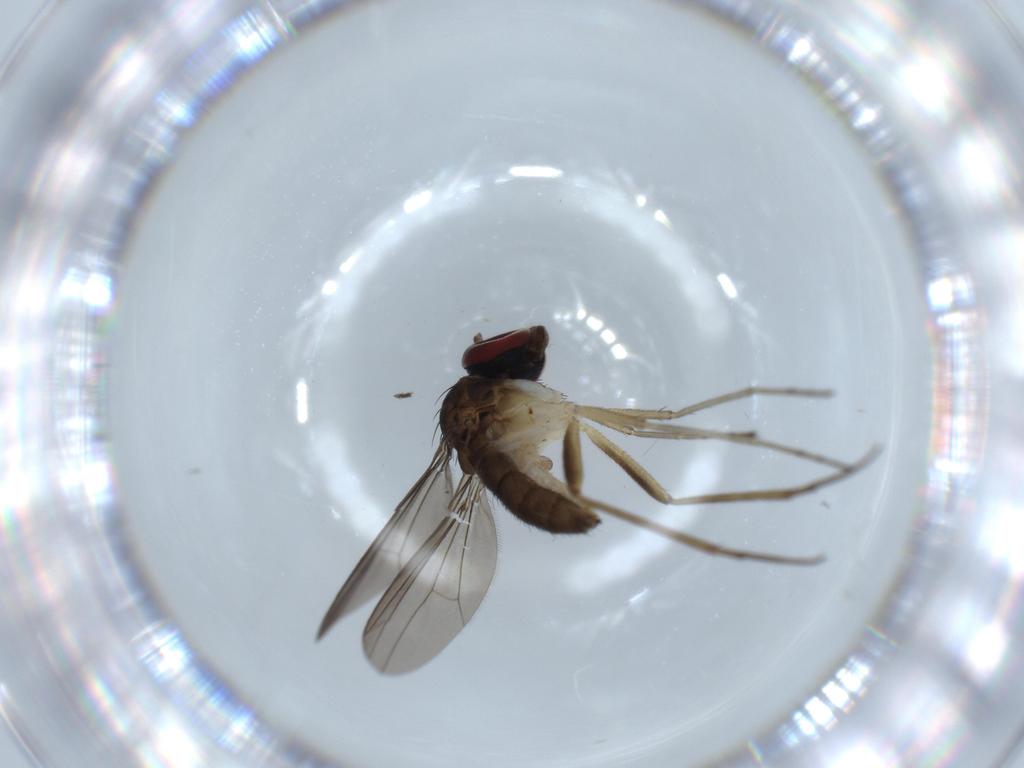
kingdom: Animalia
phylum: Arthropoda
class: Insecta
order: Diptera
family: Dolichopodidae
